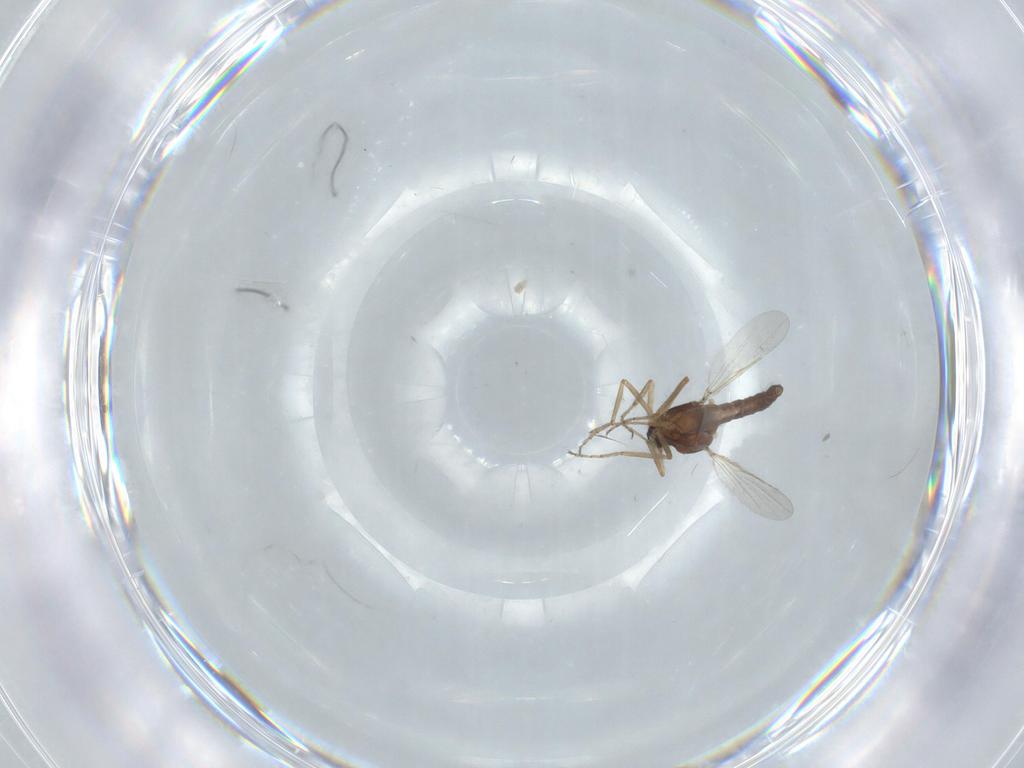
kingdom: Animalia
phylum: Arthropoda
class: Insecta
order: Diptera
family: Ceratopogonidae
